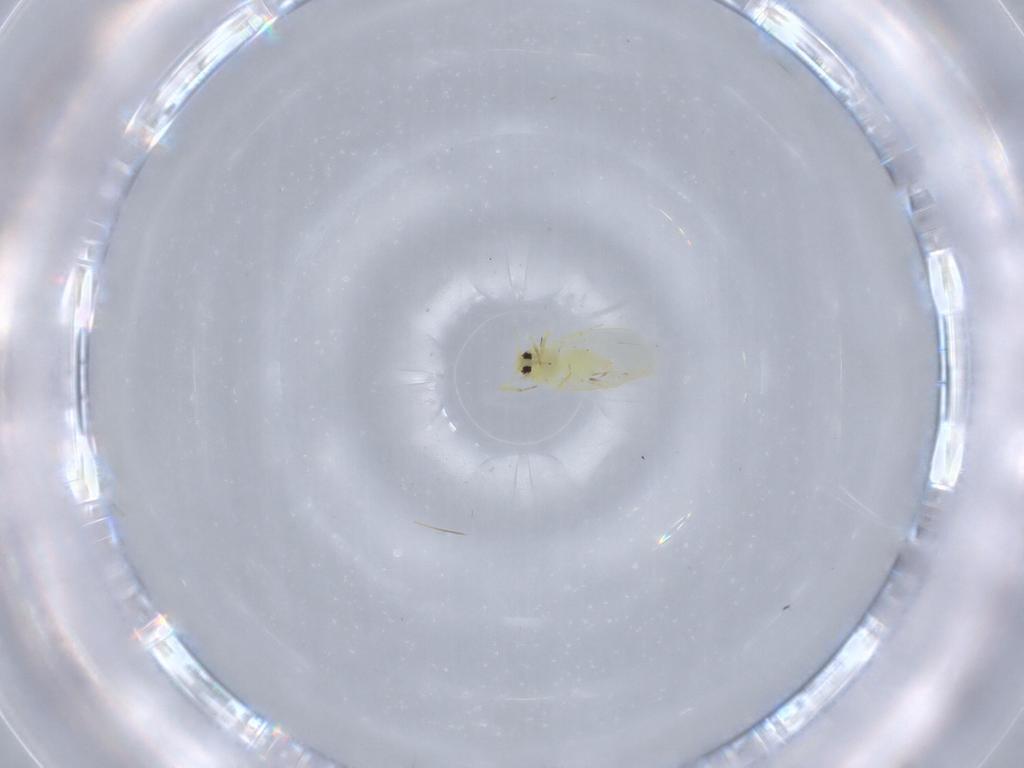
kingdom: Animalia
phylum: Arthropoda
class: Insecta
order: Hemiptera
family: Aleyrodidae
